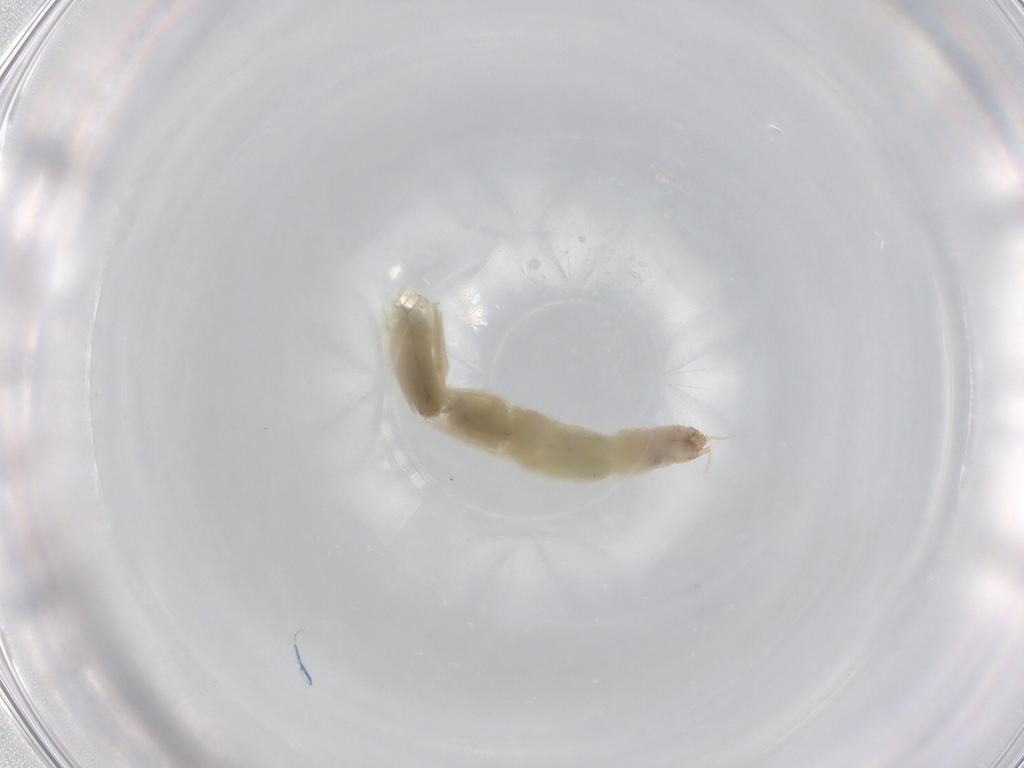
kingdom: Animalia
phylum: Arthropoda
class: Insecta
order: Diptera
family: Chironomidae
